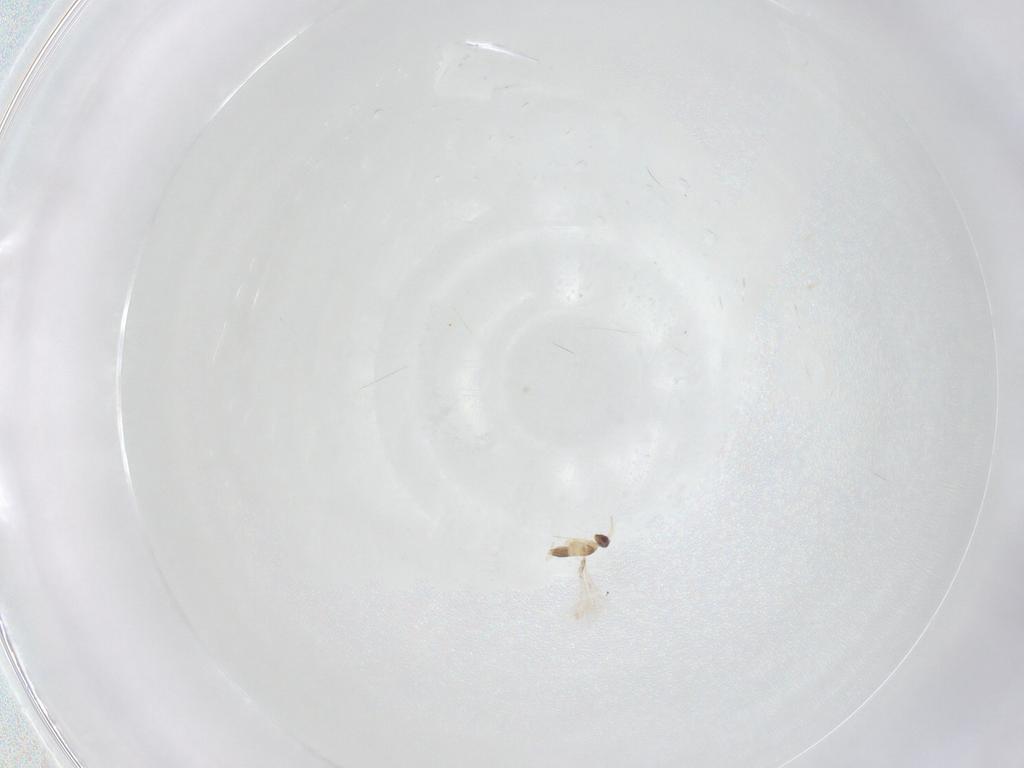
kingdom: Animalia
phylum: Arthropoda
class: Insecta
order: Hymenoptera
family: Mymaridae
